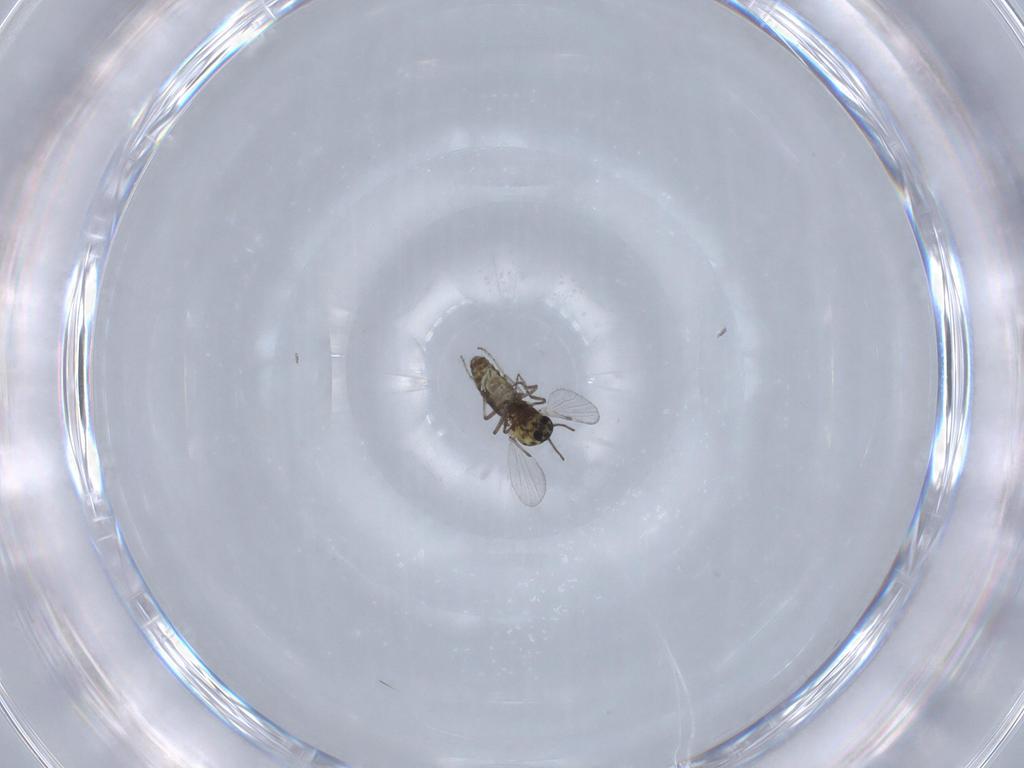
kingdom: Animalia
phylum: Arthropoda
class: Insecta
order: Diptera
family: Ceratopogonidae
